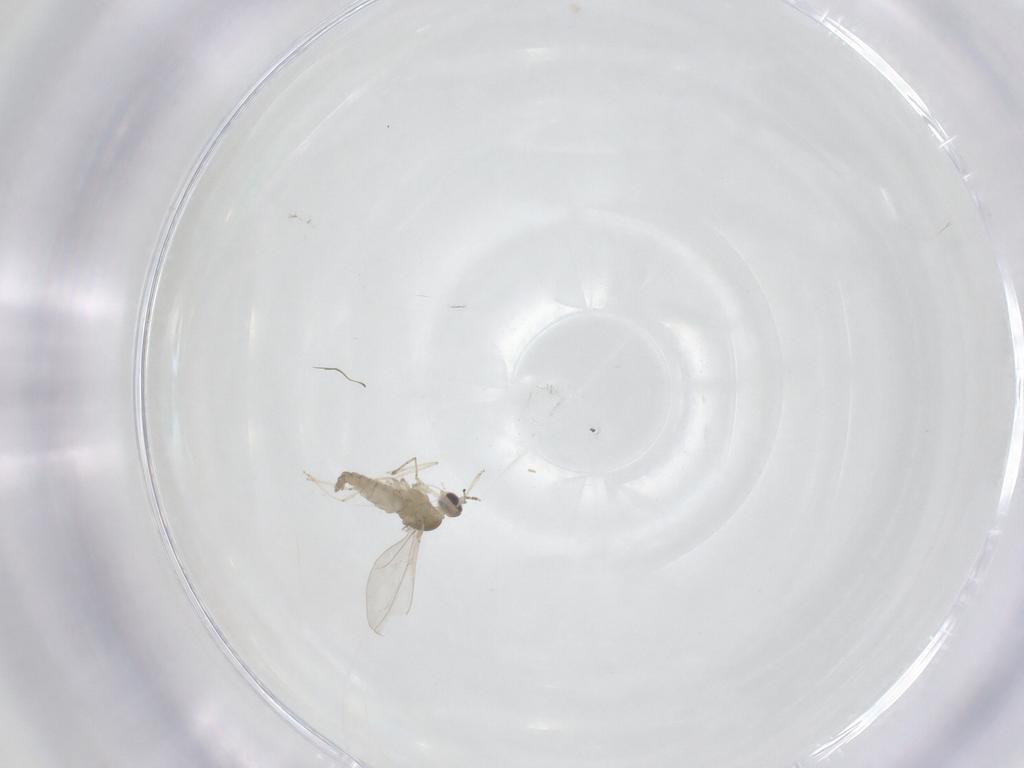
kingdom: Animalia
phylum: Arthropoda
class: Insecta
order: Diptera
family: Cecidomyiidae
